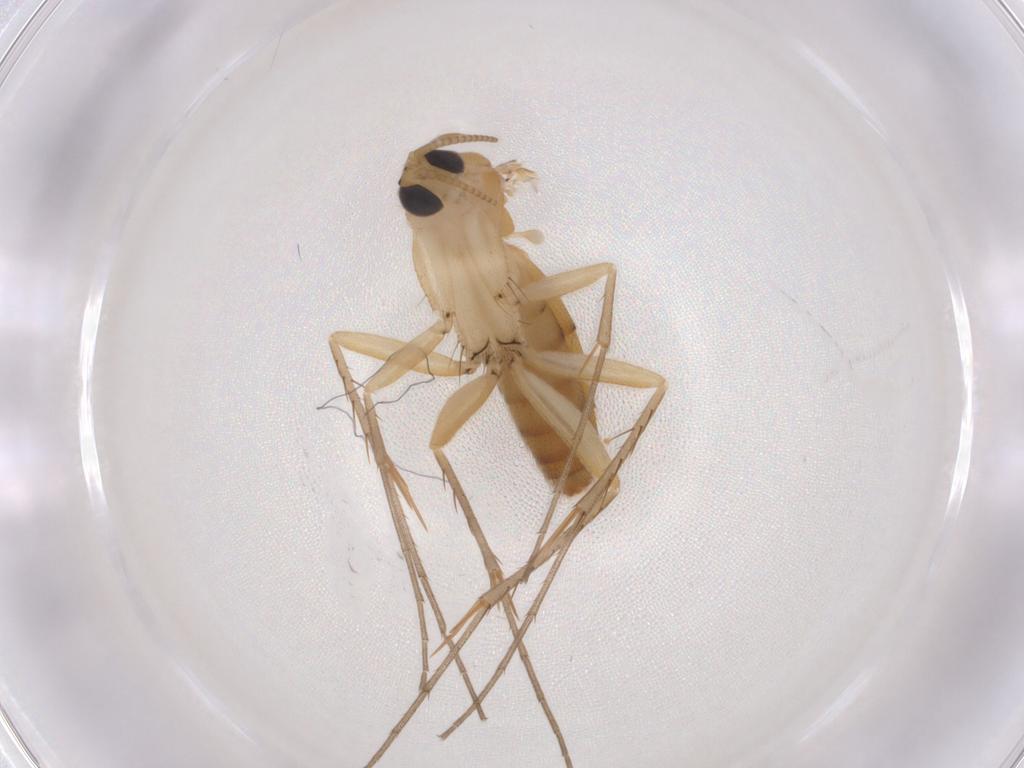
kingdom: Animalia
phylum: Arthropoda
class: Insecta
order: Diptera
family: Mycetophilidae
